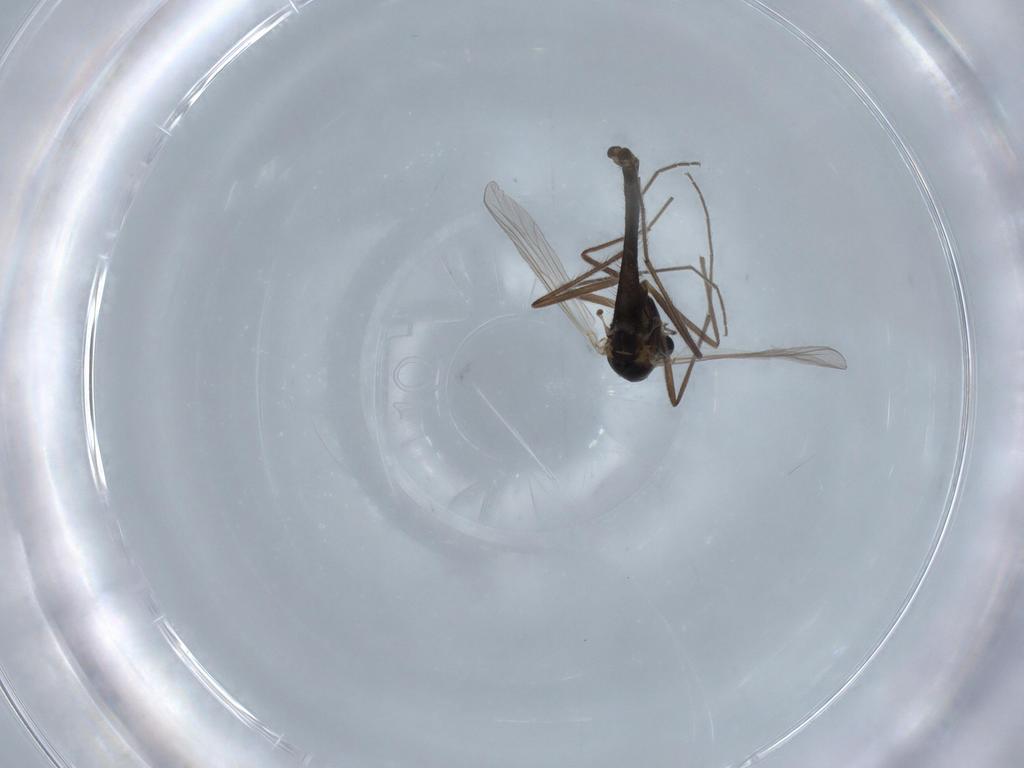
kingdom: Animalia
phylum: Arthropoda
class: Insecta
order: Diptera
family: Chironomidae
